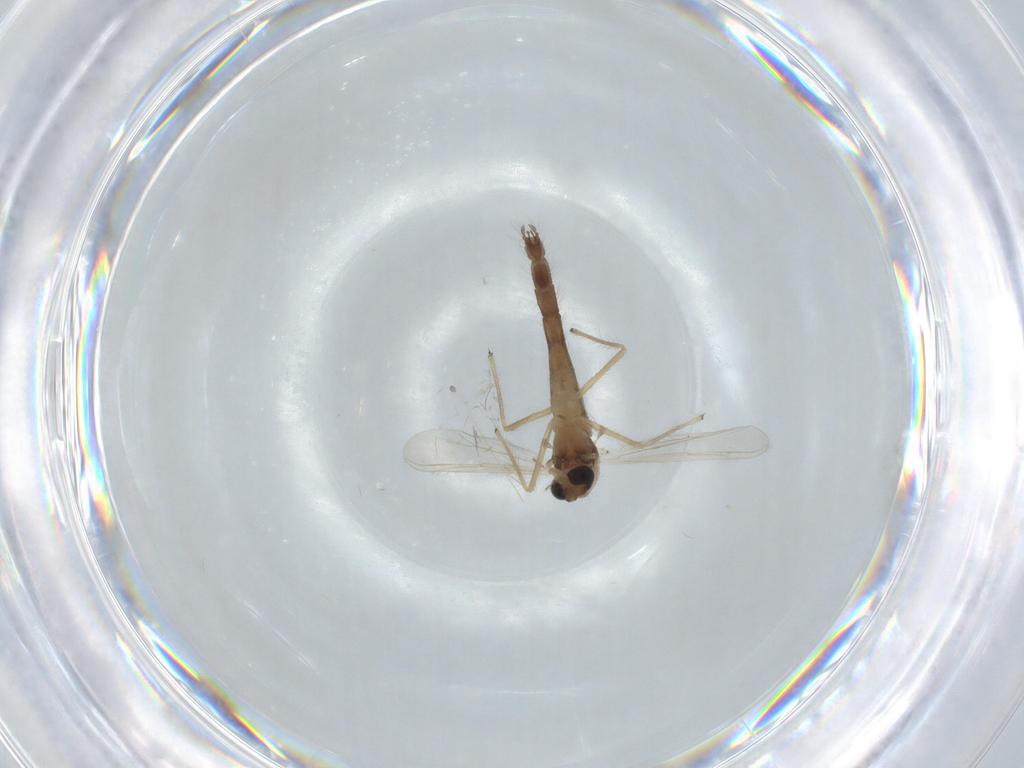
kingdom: Animalia
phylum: Arthropoda
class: Insecta
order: Diptera
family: Cecidomyiidae
